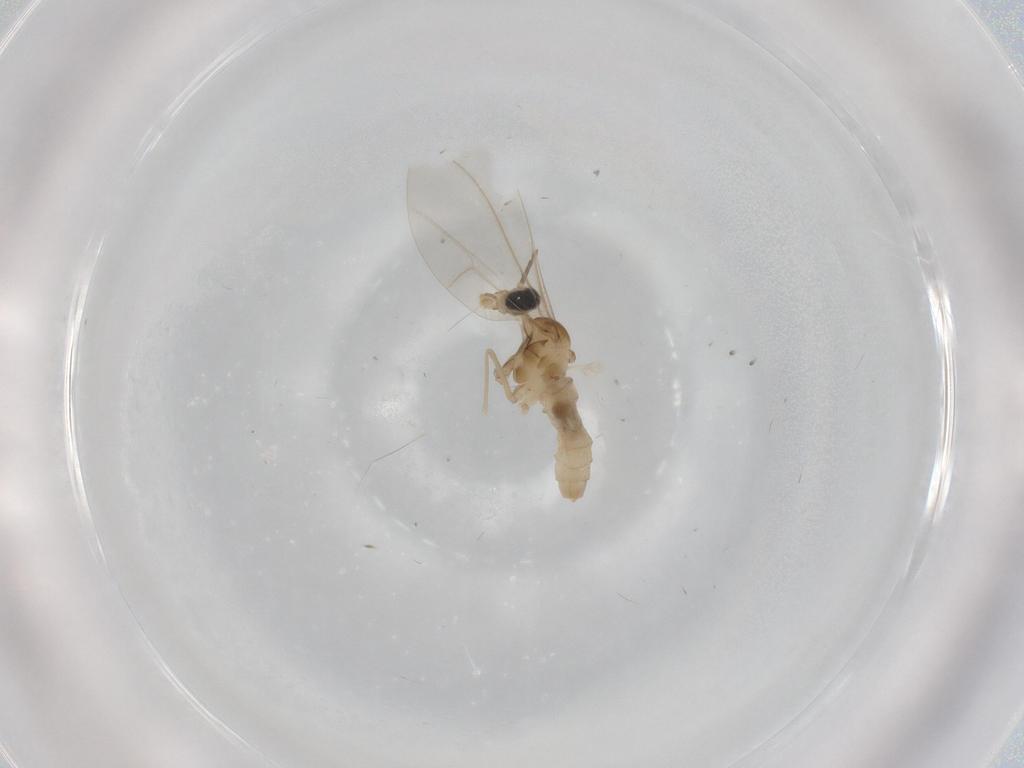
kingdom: Animalia
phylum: Arthropoda
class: Insecta
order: Diptera
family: Cecidomyiidae
